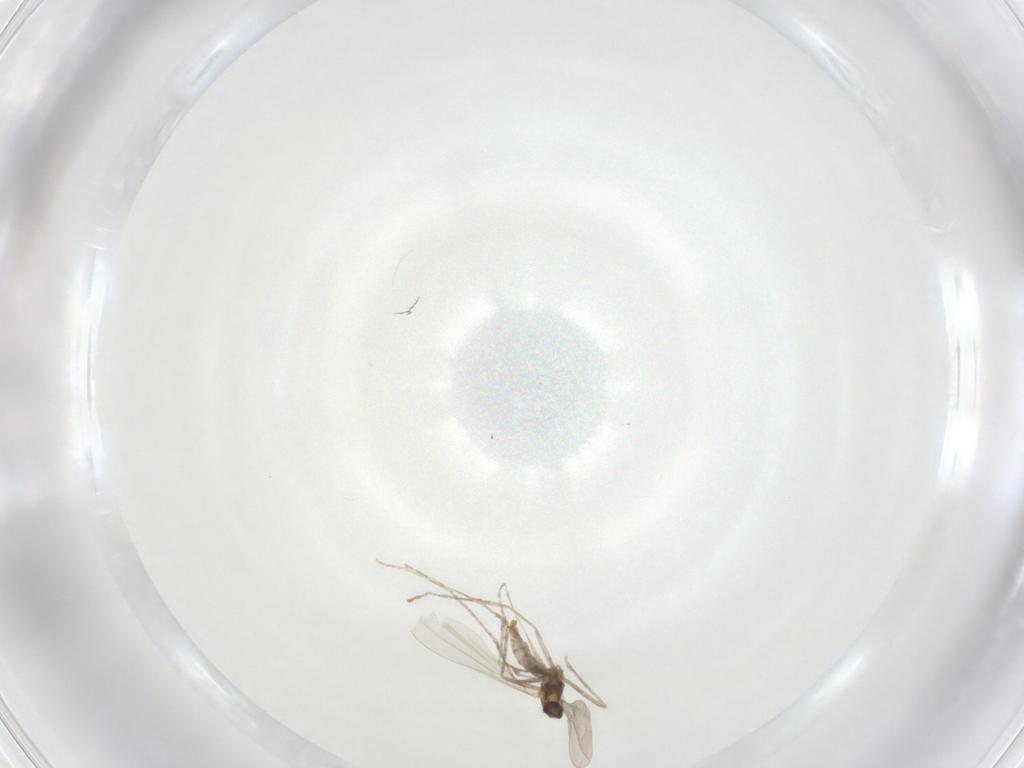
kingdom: Animalia
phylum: Arthropoda
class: Insecta
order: Diptera
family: Cecidomyiidae
